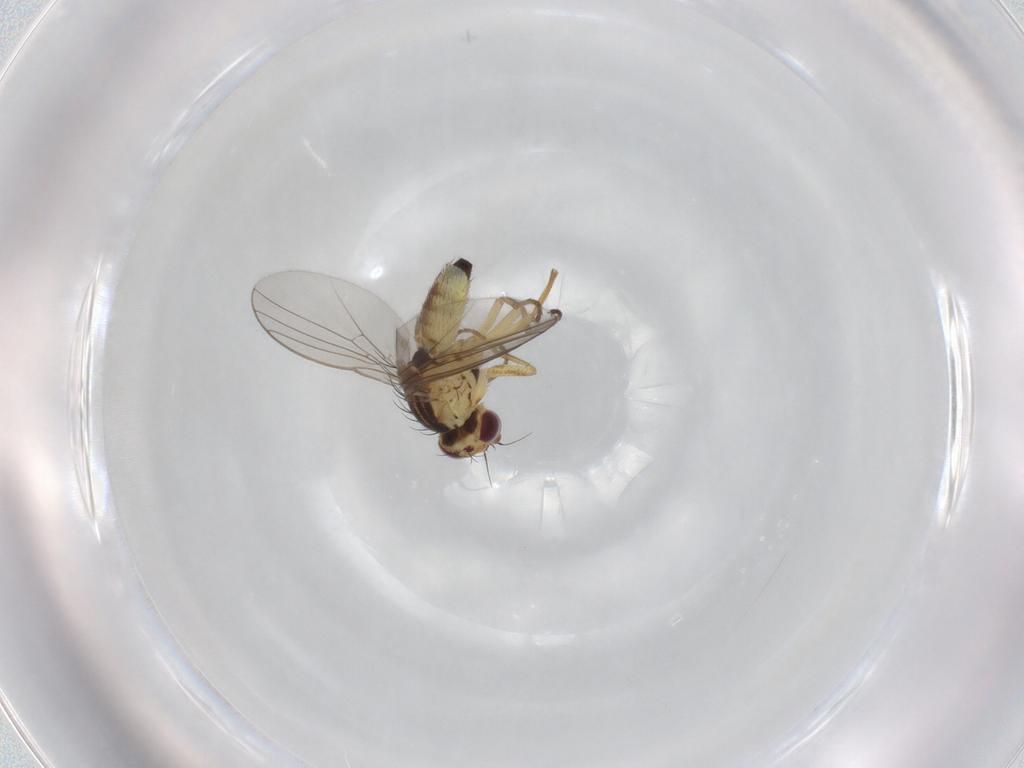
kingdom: Animalia
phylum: Arthropoda
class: Insecta
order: Diptera
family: Agromyzidae
